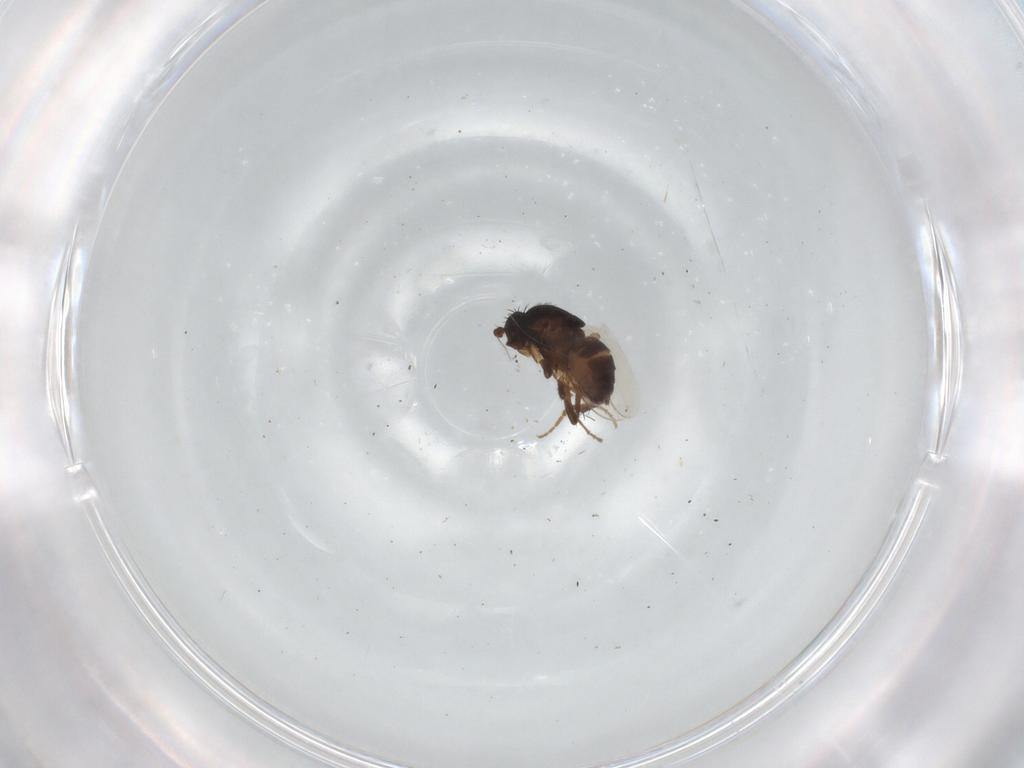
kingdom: Animalia
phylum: Arthropoda
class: Insecta
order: Diptera
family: Sphaeroceridae
